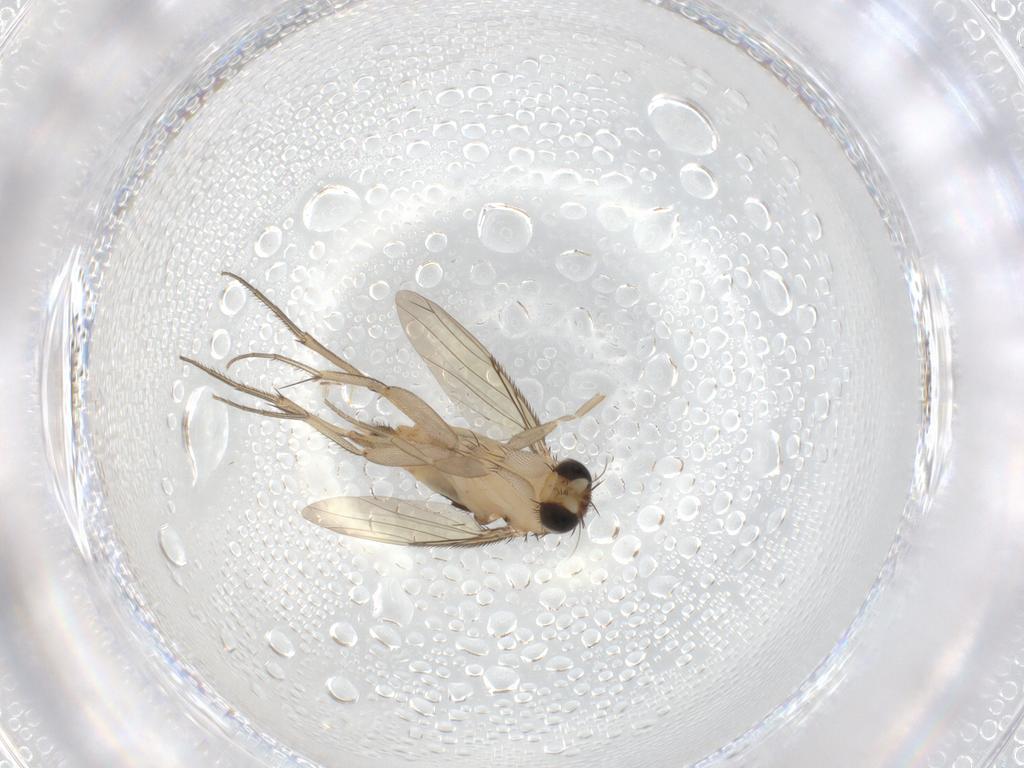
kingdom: Animalia
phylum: Arthropoda
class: Insecta
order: Diptera
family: Phoridae
